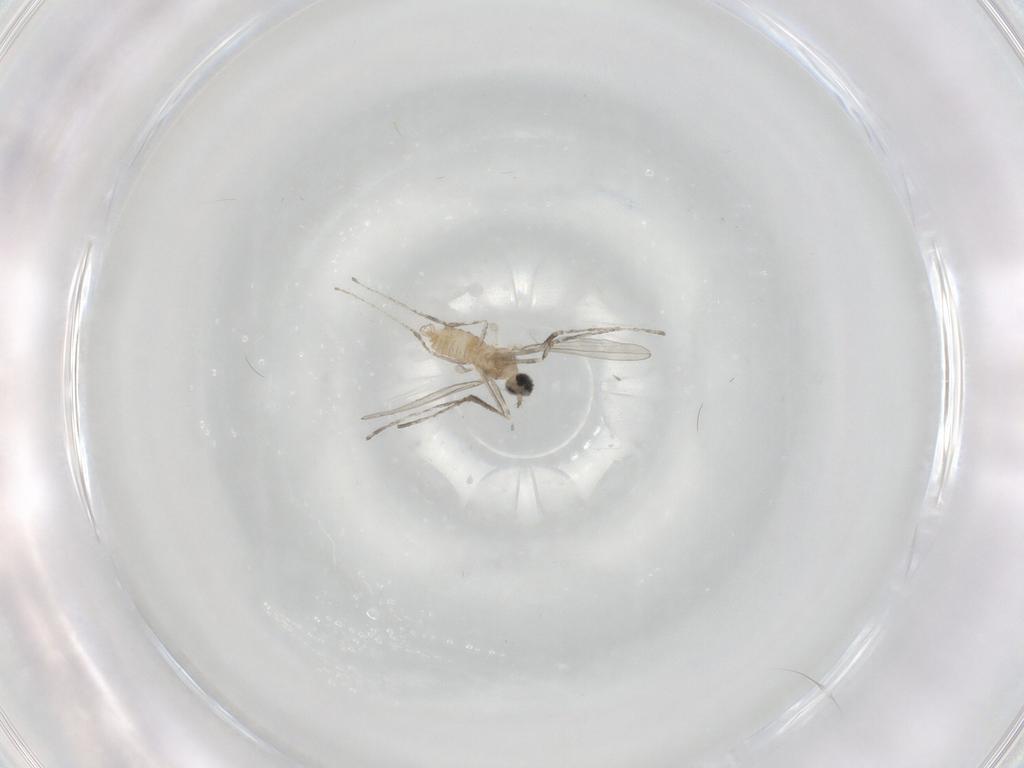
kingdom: Animalia
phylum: Arthropoda
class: Insecta
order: Diptera
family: Cecidomyiidae
